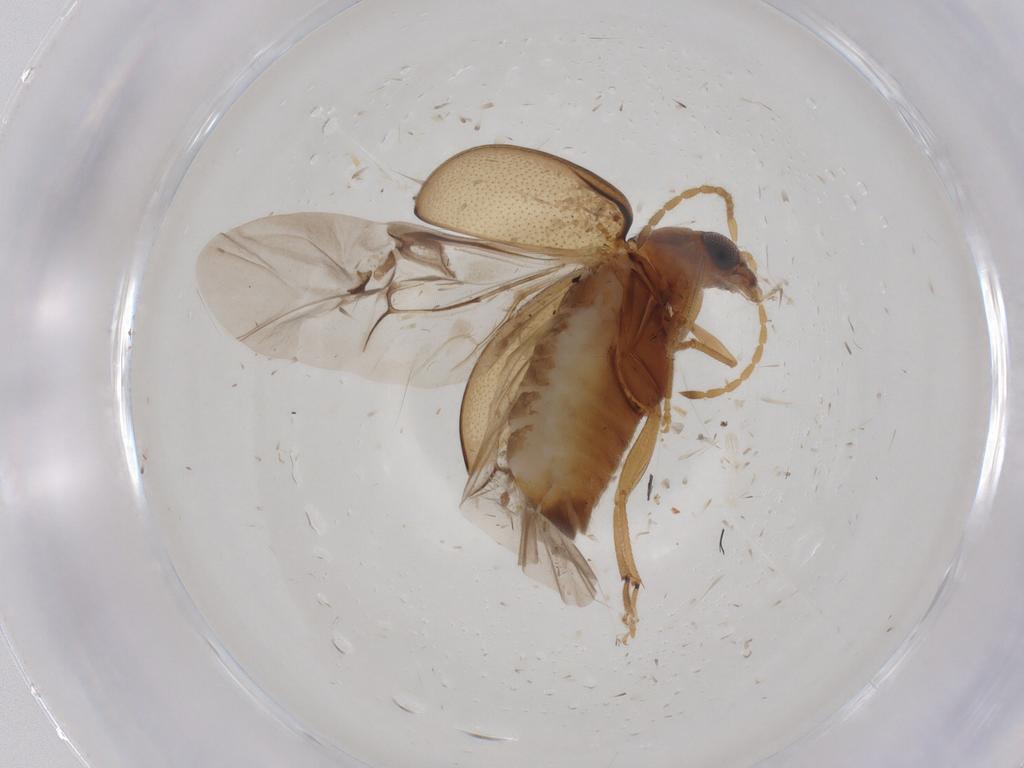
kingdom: Animalia
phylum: Arthropoda
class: Insecta
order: Coleoptera
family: Chrysomelidae
